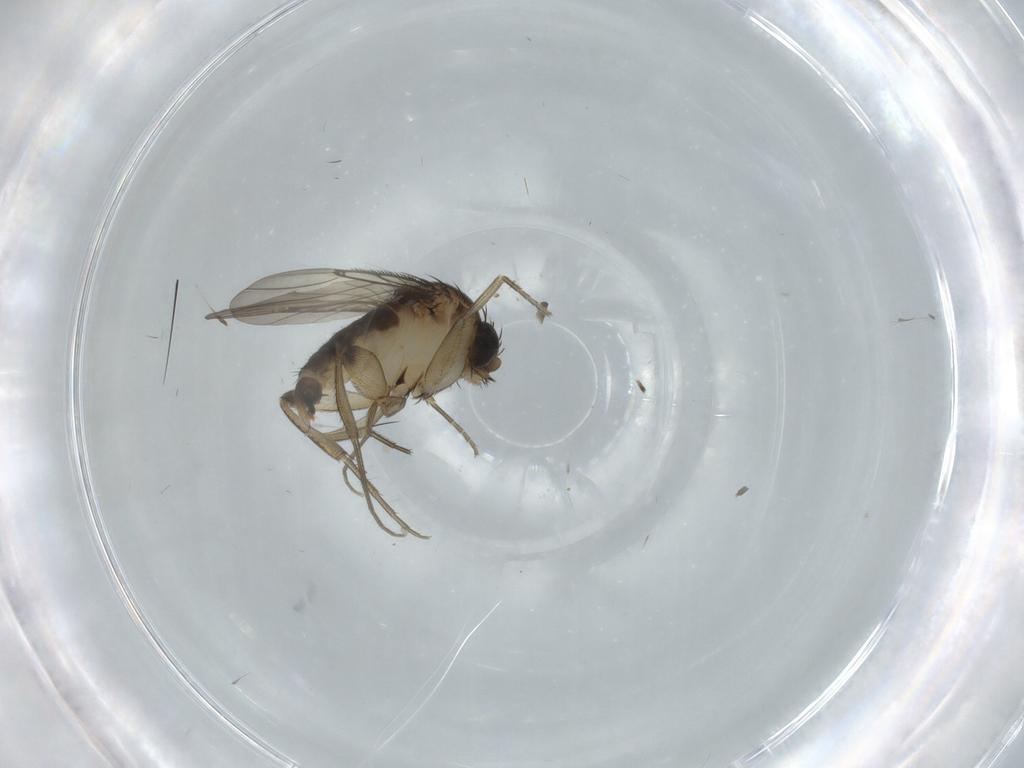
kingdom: Animalia
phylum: Arthropoda
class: Insecta
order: Diptera
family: Phoridae
